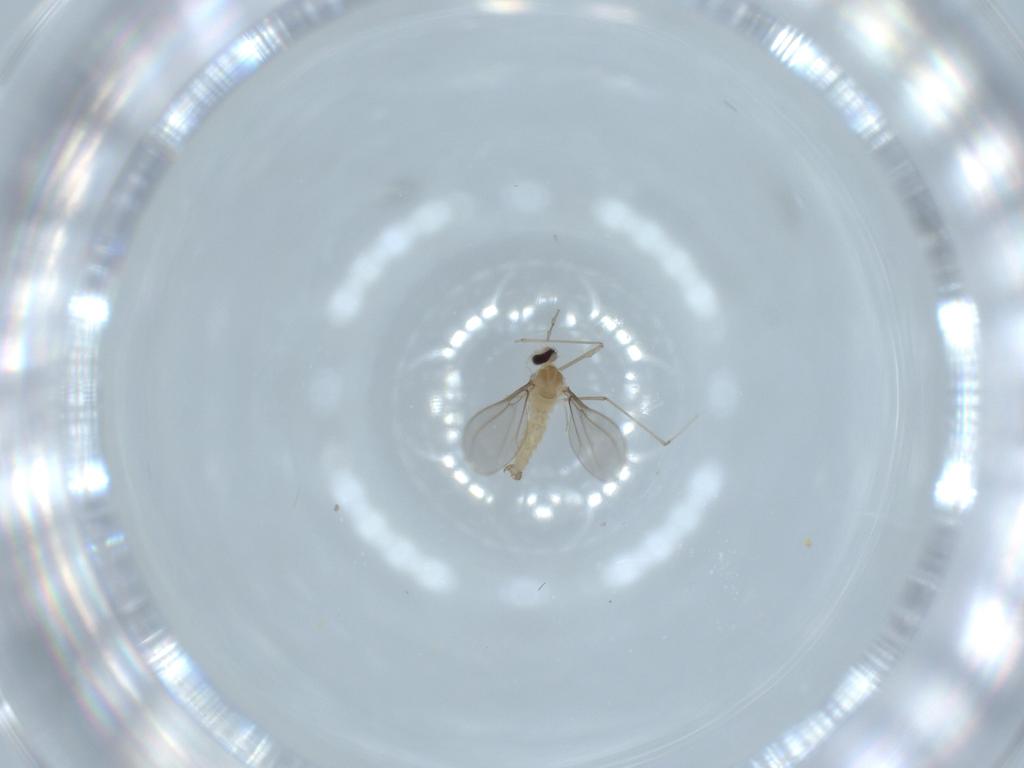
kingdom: Animalia
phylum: Arthropoda
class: Insecta
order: Diptera
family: Cecidomyiidae
